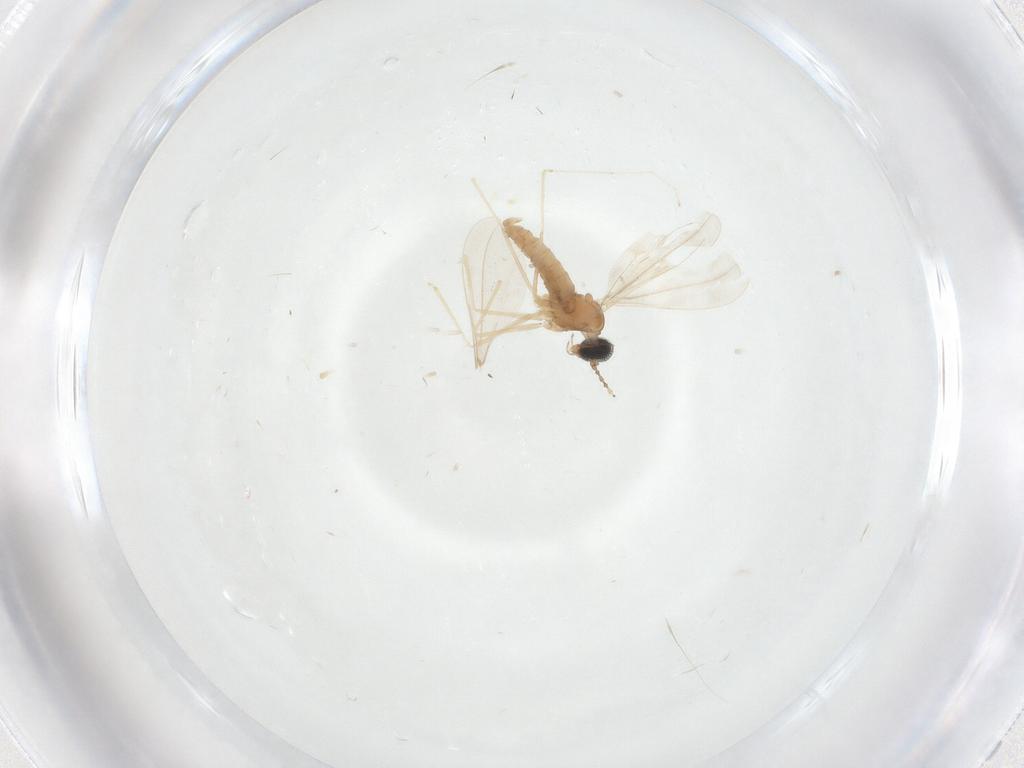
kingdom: Animalia
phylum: Arthropoda
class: Insecta
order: Diptera
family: Cecidomyiidae
